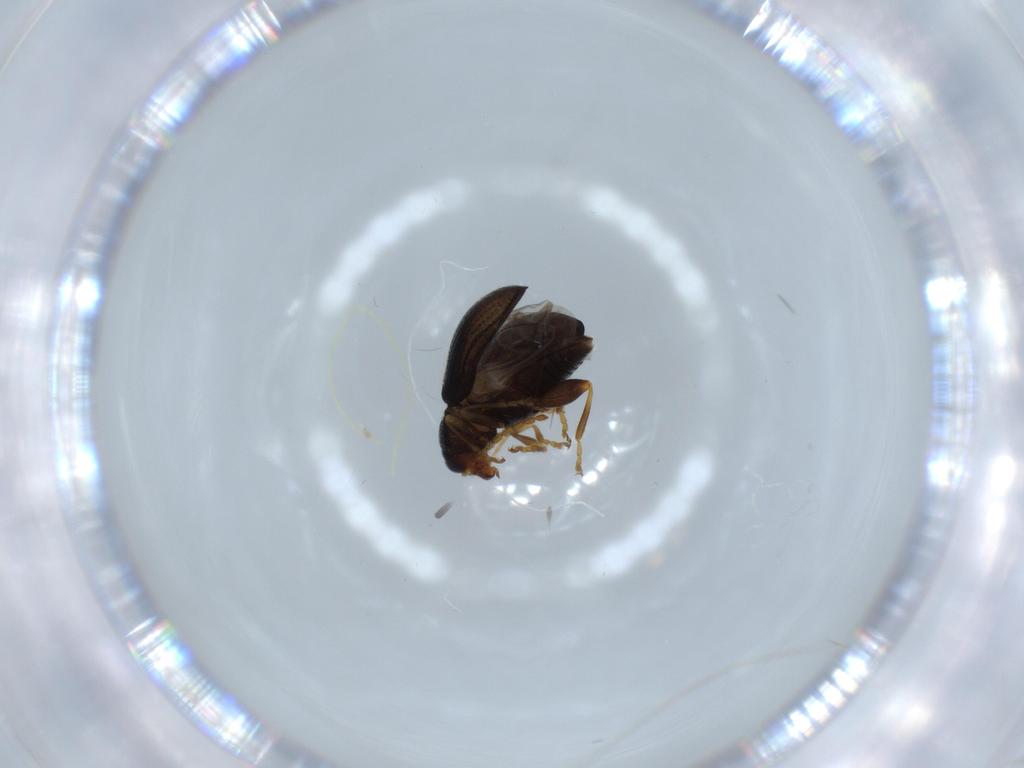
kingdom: Animalia
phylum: Arthropoda
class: Insecta
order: Coleoptera
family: Chrysomelidae
